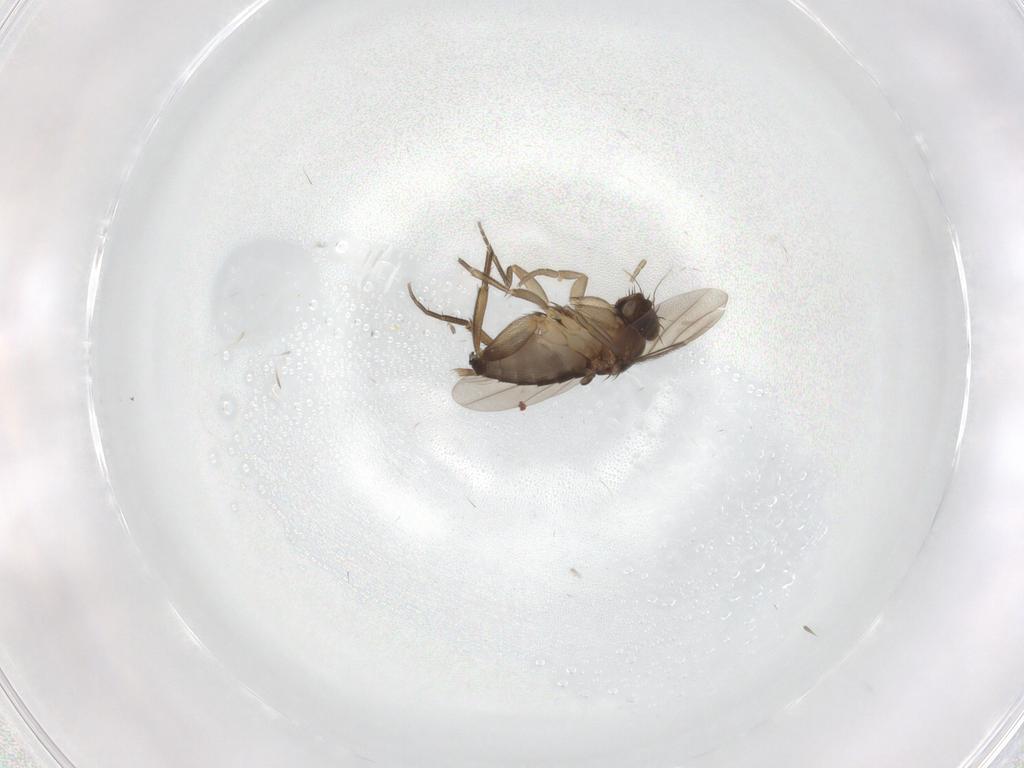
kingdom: Animalia
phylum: Arthropoda
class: Insecta
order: Diptera
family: Phoridae
